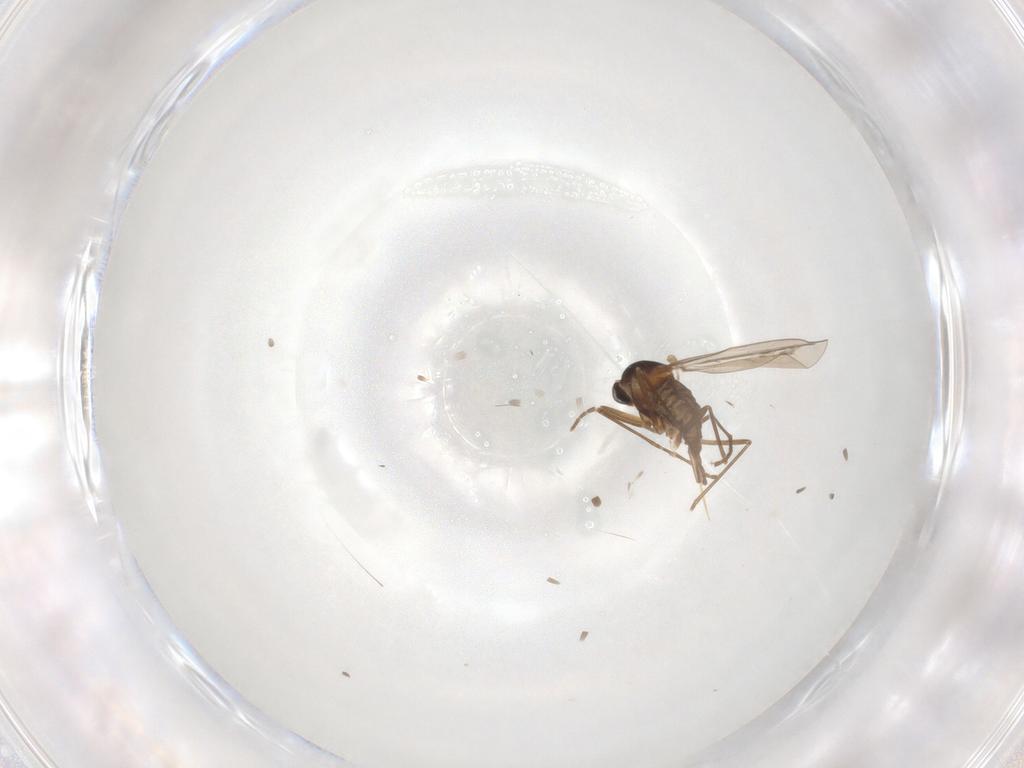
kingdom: Animalia
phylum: Arthropoda
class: Insecta
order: Diptera
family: Cecidomyiidae
